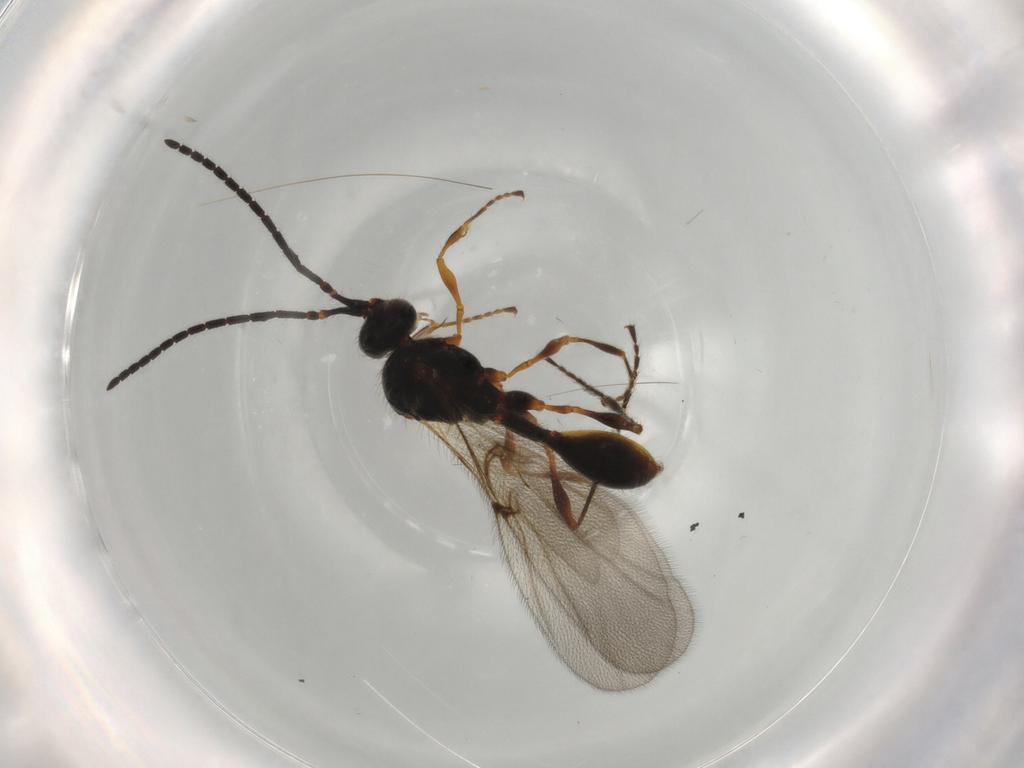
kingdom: Animalia
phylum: Arthropoda
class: Insecta
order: Hymenoptera
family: Diapriidae
